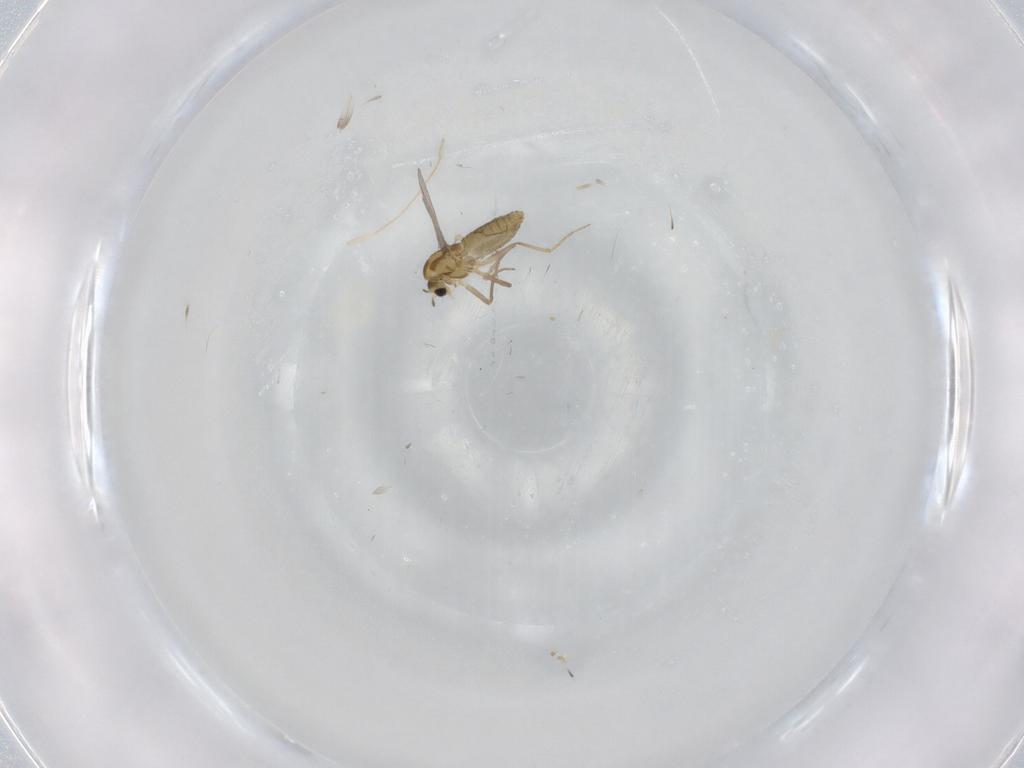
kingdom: Animalia
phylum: Arthropoda
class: Insecta
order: Diptera
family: Chironomidae
